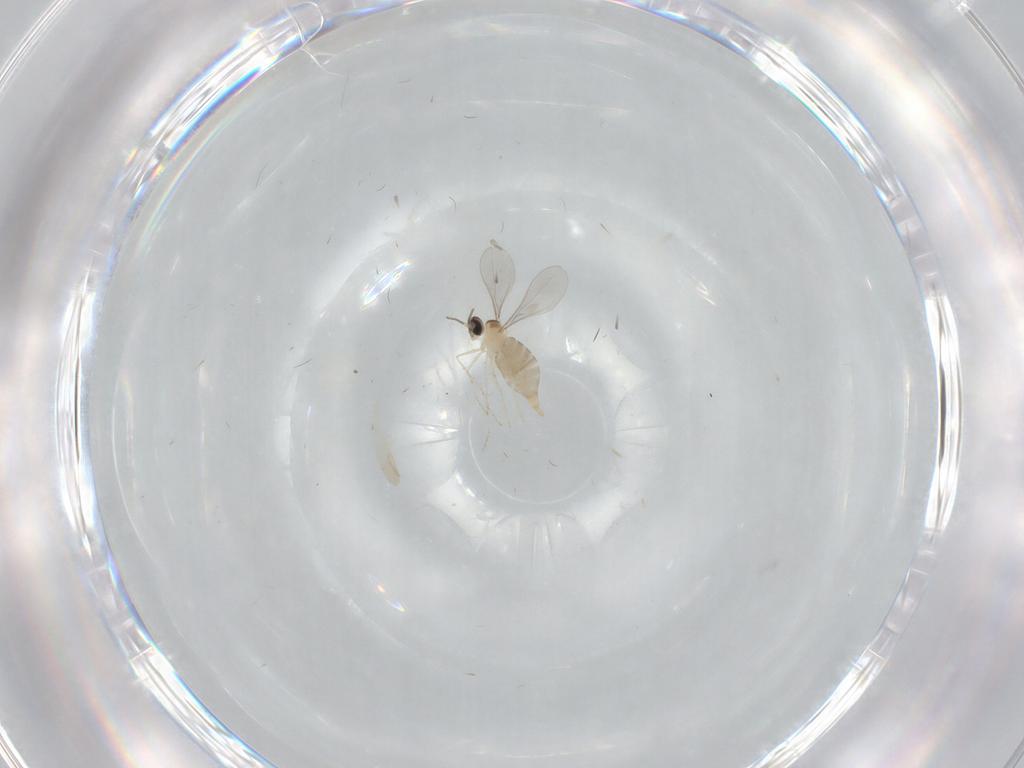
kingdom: Animalia
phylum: Arthropoda
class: Insecta
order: Diptera
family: Cecidomyiidae
